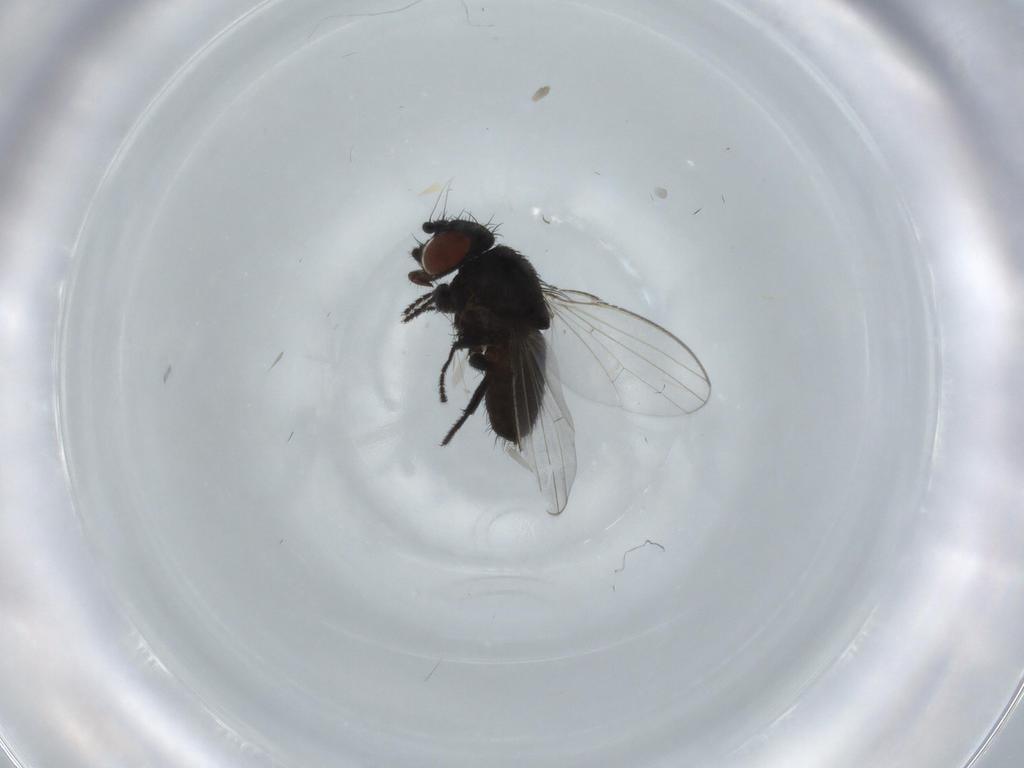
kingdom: Animalia
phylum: Arthropoda
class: Insecta
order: Diptera
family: Milichiidae
